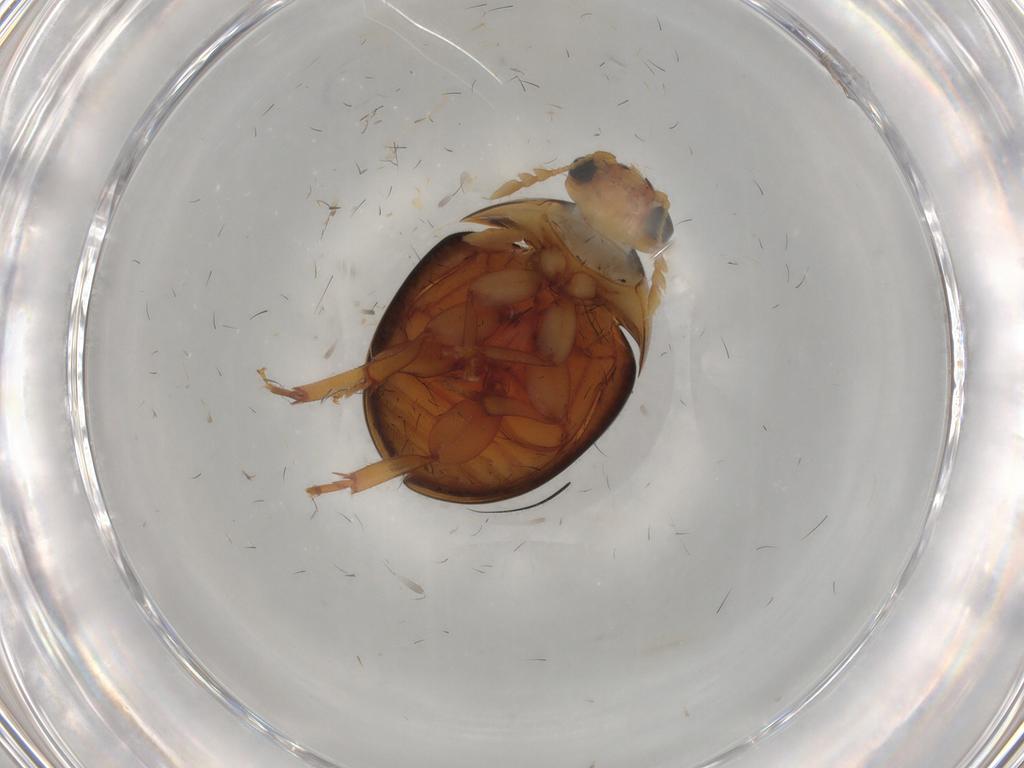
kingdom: Animalia
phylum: Arthropoda
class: Insecta
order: Coleoptera
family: Phalacridae
